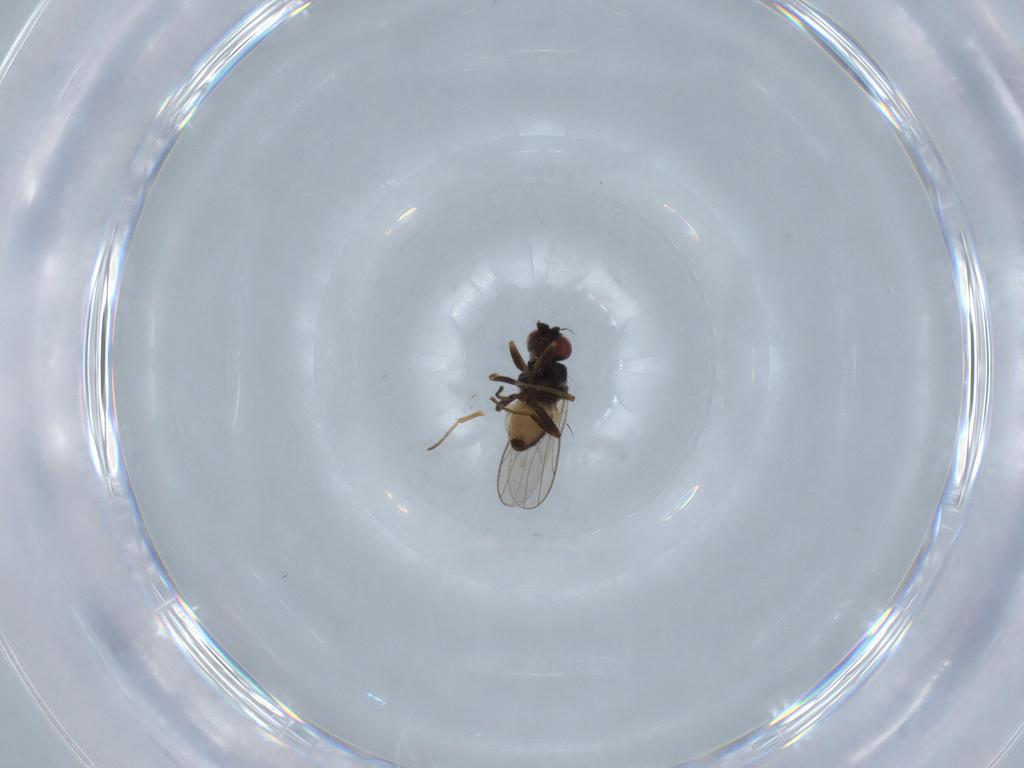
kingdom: Animalia
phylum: Arthropoda
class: Insecta
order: Diptera
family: Chloropidae
